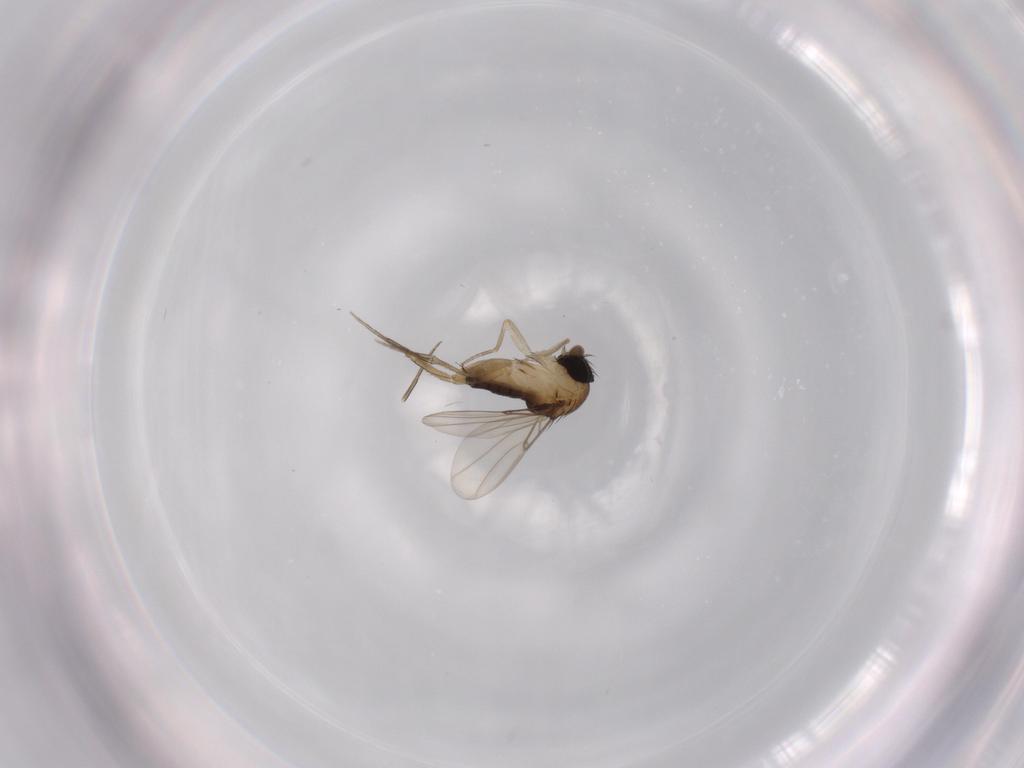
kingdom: Animalia
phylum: Arthropoda
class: Insecta
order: Diptera
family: Phoridae
